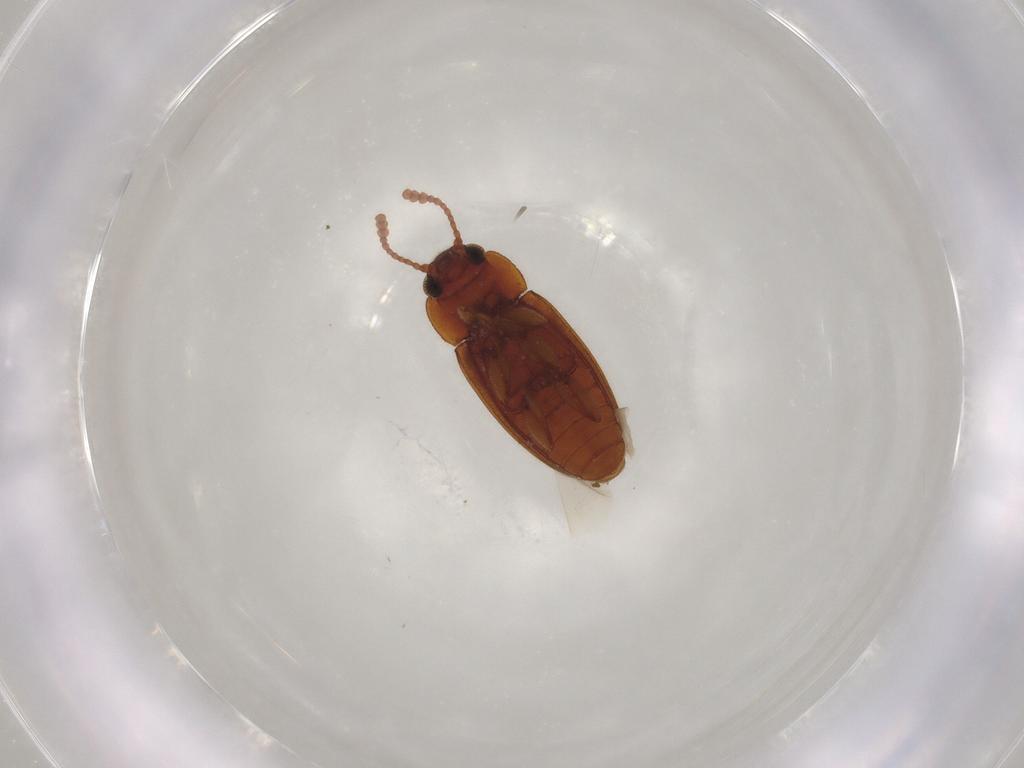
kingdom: Animalia
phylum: Arthropoda
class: Insecta
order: Coleoptera
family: Erotylidae
